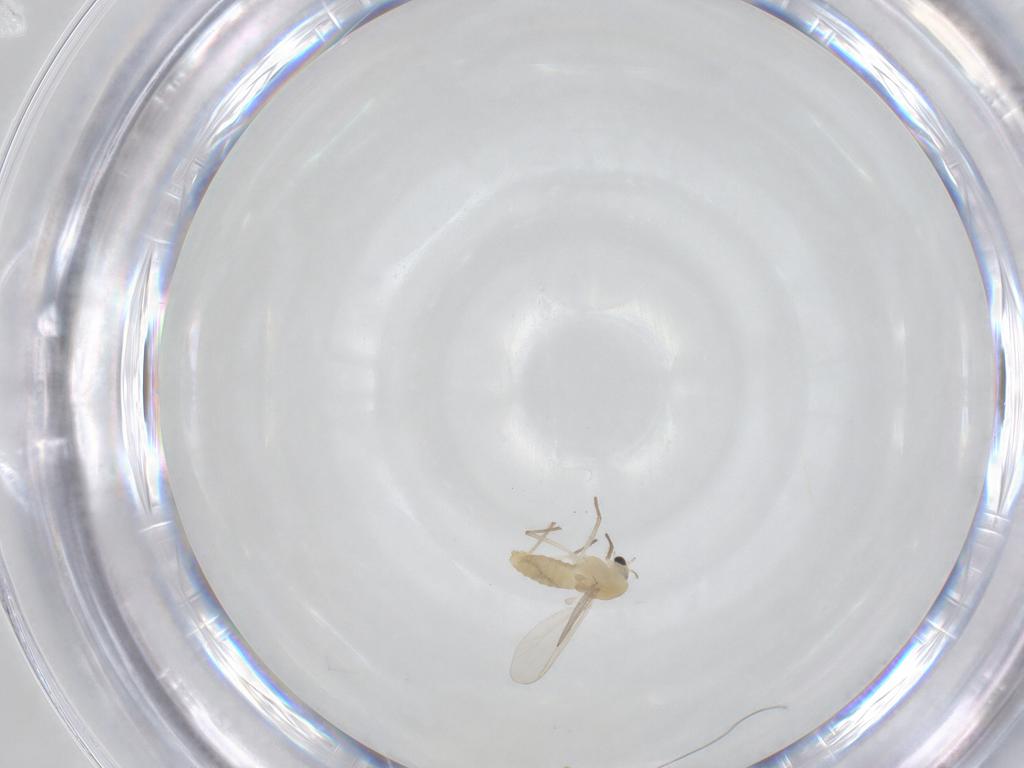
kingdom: Animalia
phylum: Arthropoda
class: Insecta
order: Diptera
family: Chironomidae
